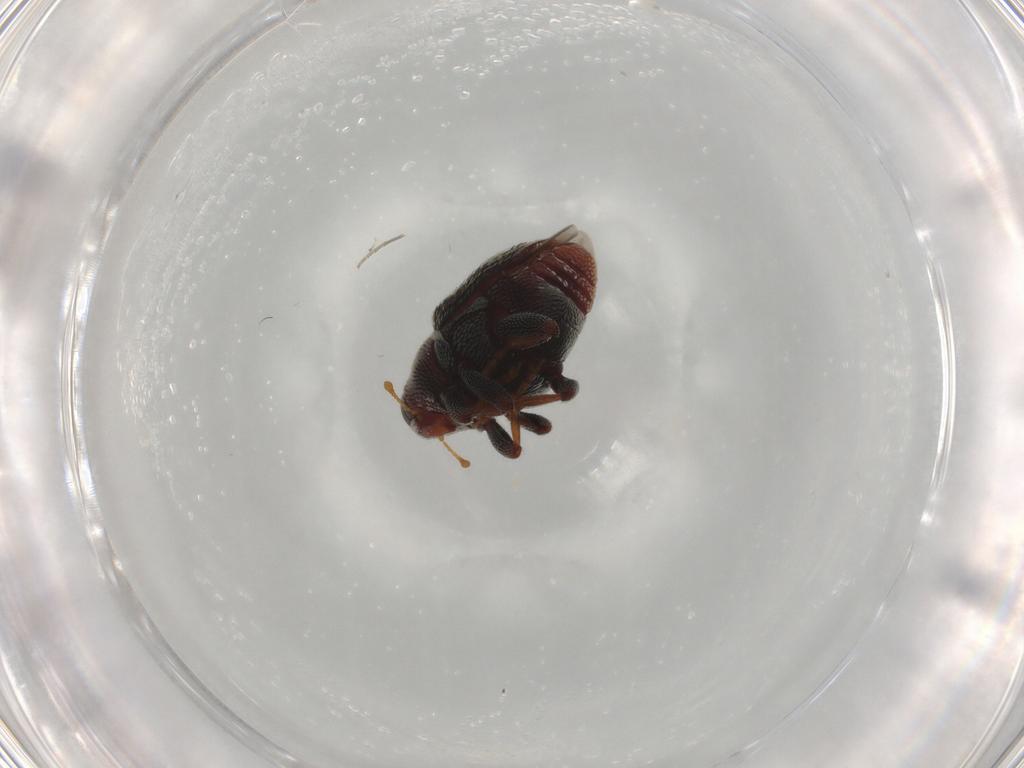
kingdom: Animalia
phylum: Arthropoda
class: Insecta
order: Coleoptera
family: Curculionidae
